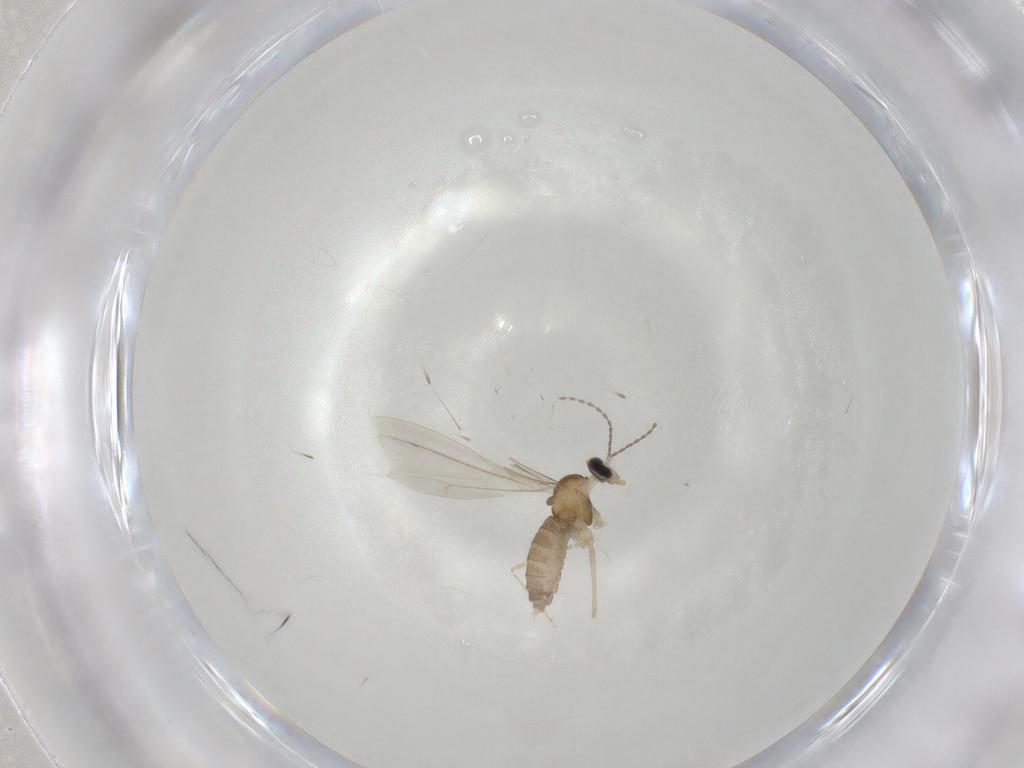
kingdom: Animalia
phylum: Arthropoda
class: Insecta
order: Diptera
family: Cecidomyiidae
